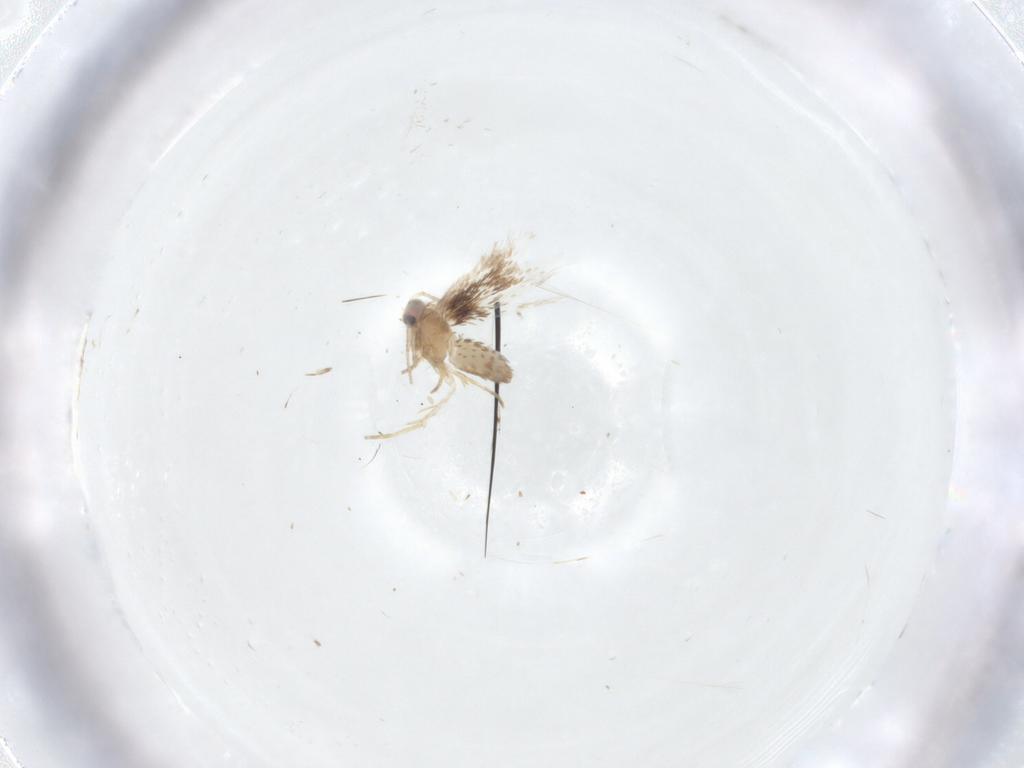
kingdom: Animalia
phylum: Arthropoda
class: Insecta
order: Lepidoptera
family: Nepticulidae
